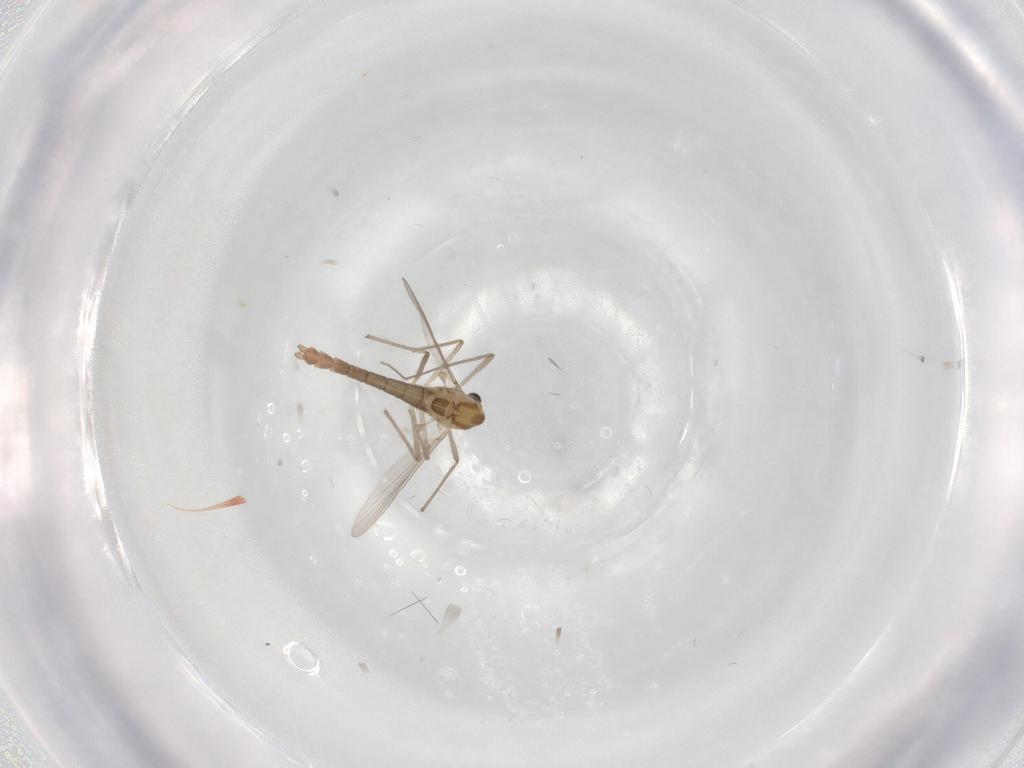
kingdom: Animalia
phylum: Arthropoda
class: Insecta
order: Diptera
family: Chironomidae
